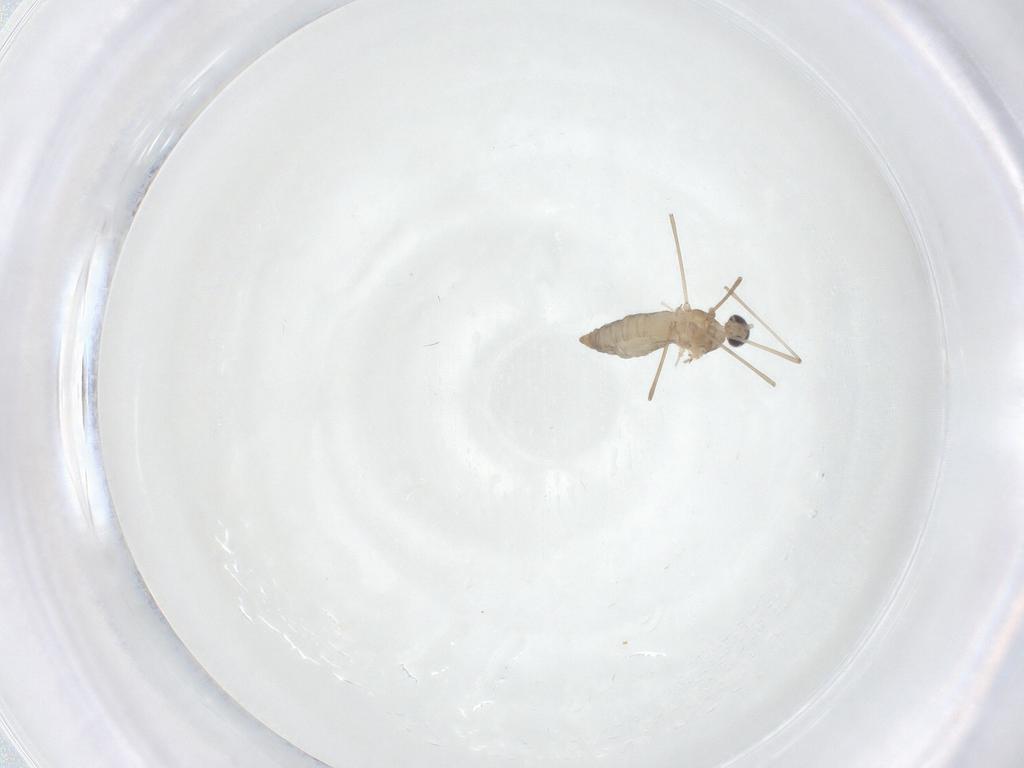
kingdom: Animalia
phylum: Arthropoda
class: Insecta
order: Diptera
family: Cecidomyiidae
